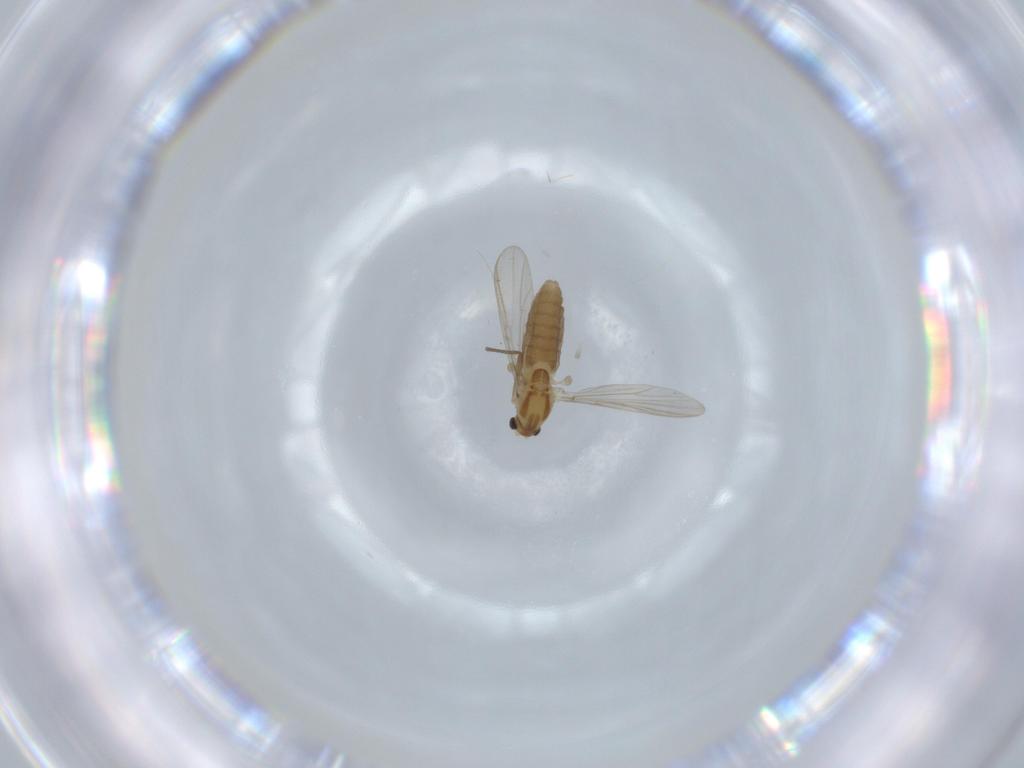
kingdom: Animalia
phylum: Arthropoda
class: Insecta
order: Diptera
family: Chironomidae
